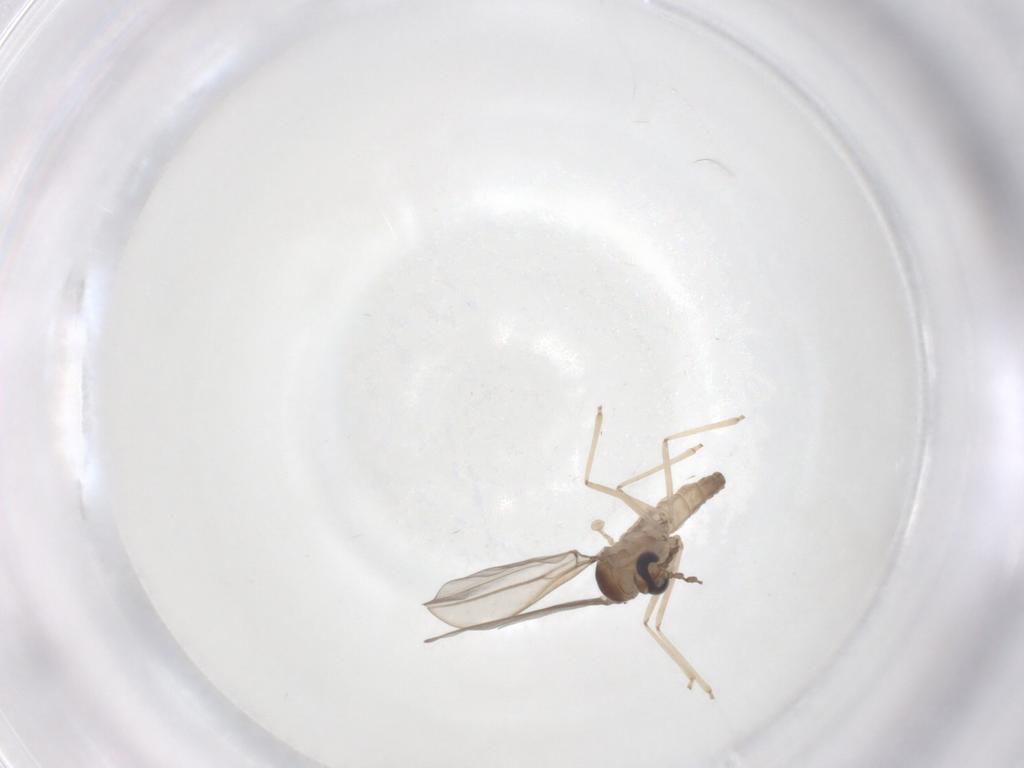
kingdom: Animalia
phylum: Arthropoda
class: Insecta
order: Diptera
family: Cecidomyiidae
